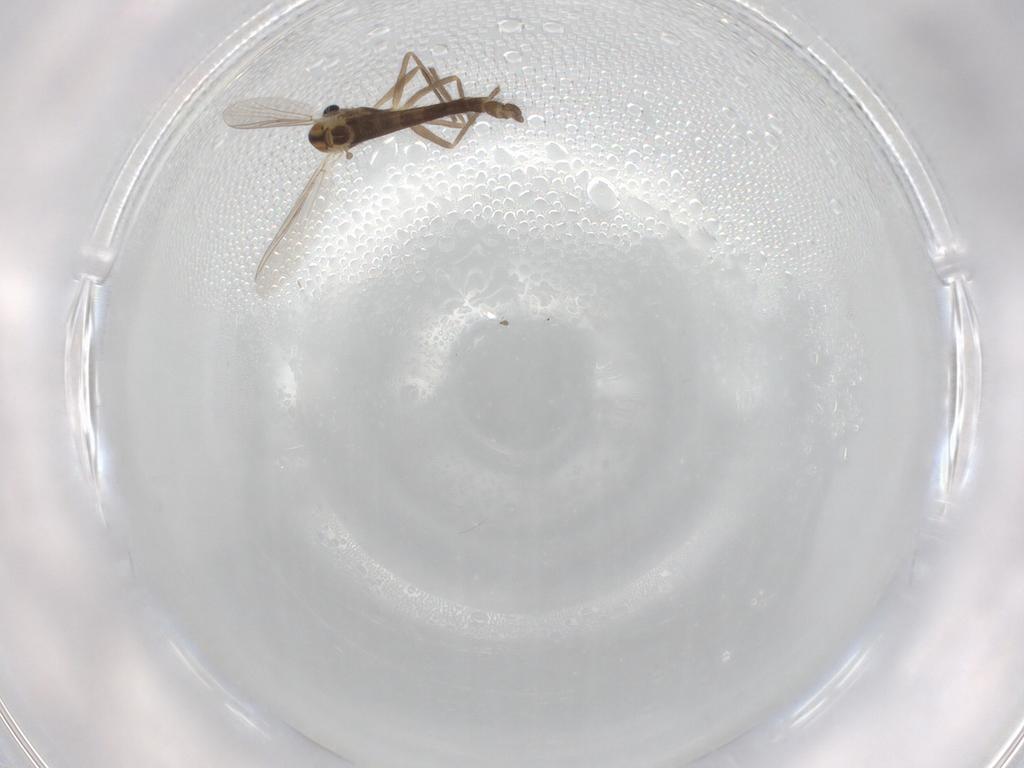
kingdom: Animalia
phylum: Arthropoda
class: Insecta
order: Diptera
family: Chironomidae
